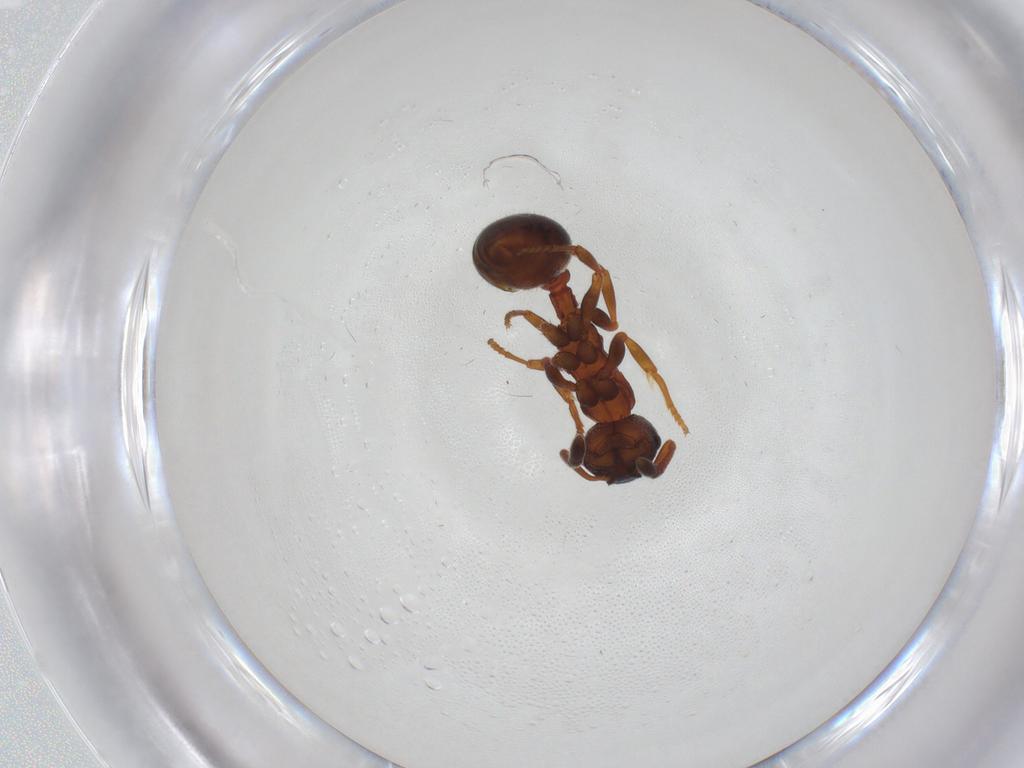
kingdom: Animalia
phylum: Arthropoda
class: Insecta
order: Hymenoptera
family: Formicidae
